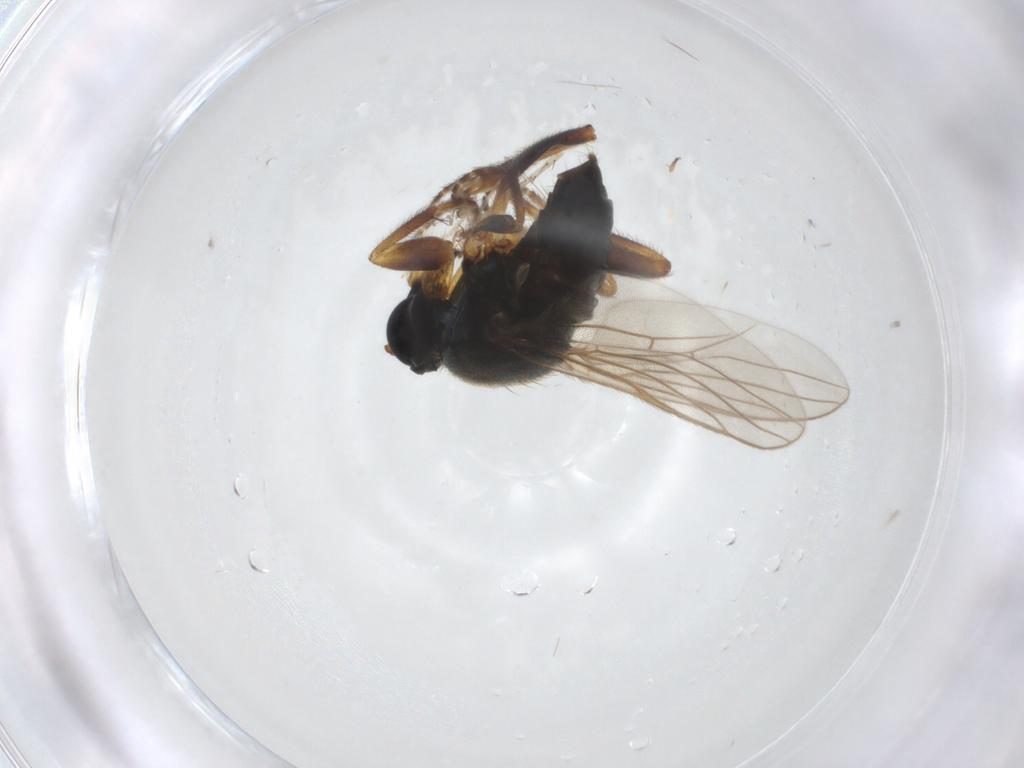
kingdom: Animalia
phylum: Arthropoda
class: Insecta
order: Diptera
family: Hybotidae
